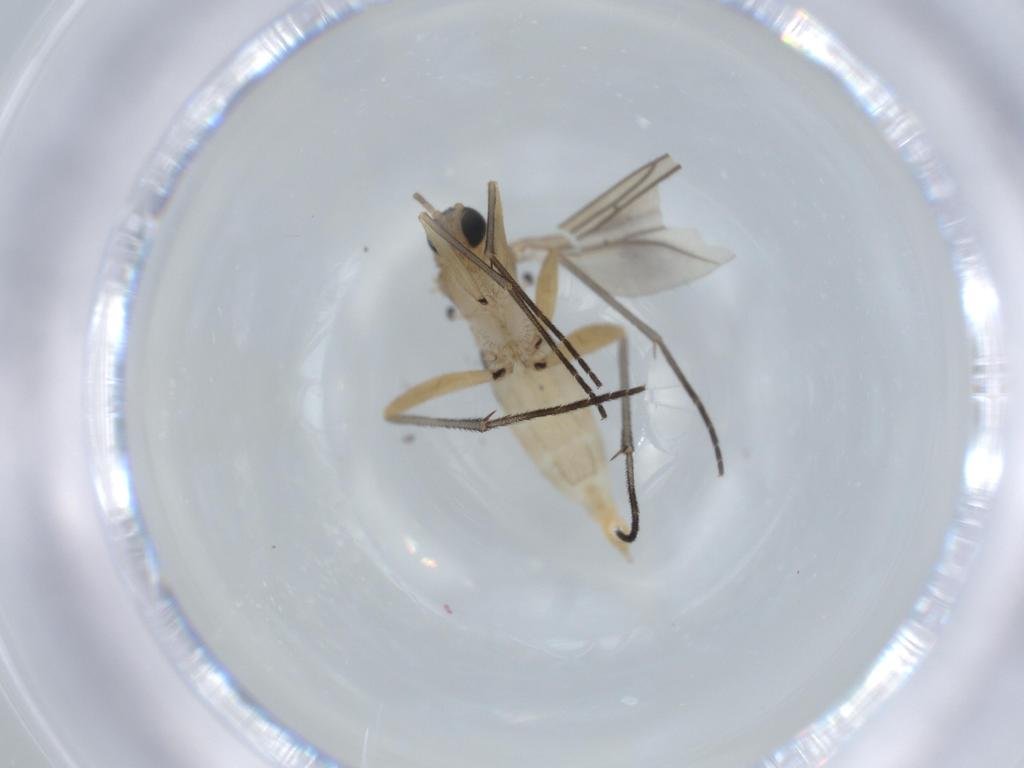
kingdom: Animalia
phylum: Arthropoda
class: Insecta
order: Diptera
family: Sciaridae
